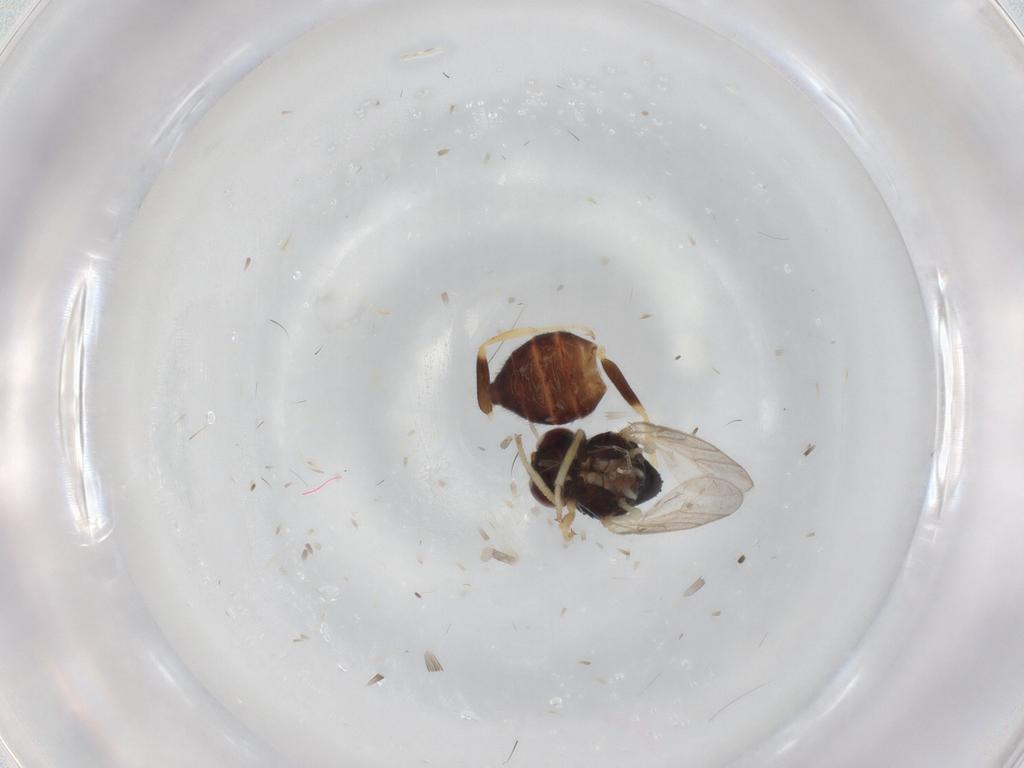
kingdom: Animalia
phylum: Arthropoda
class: Insecta
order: Diptera
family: Chloropidae
